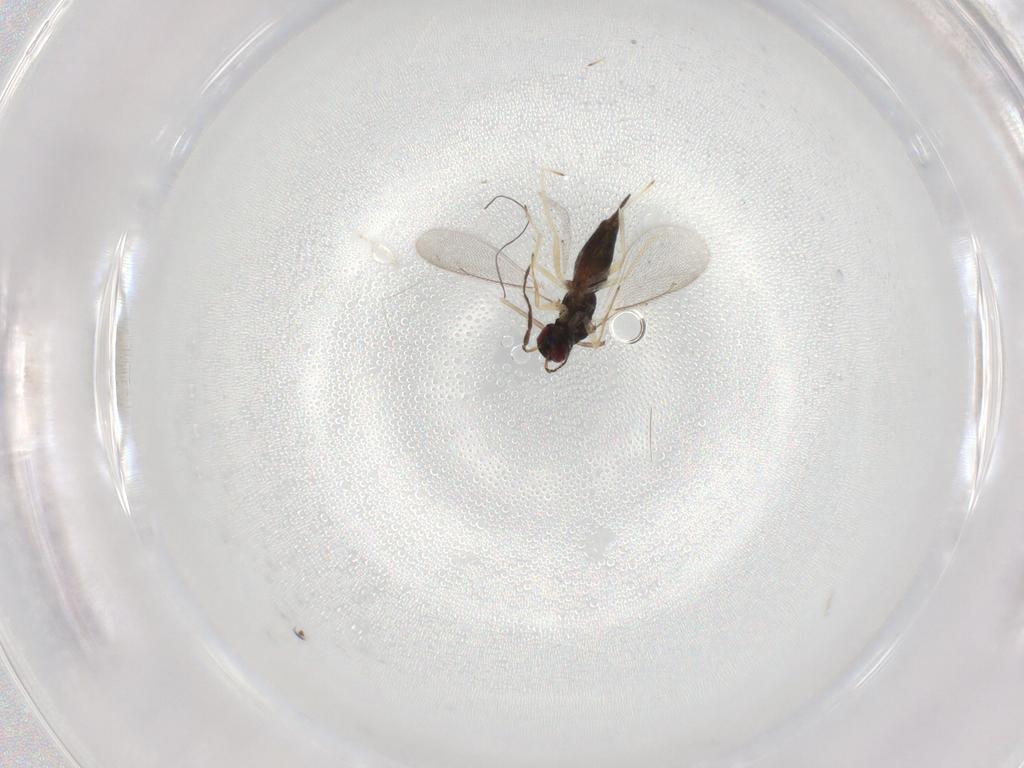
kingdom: Animalia
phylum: Arthropoda
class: Insecta
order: Hymenoptera
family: Eulophidae
